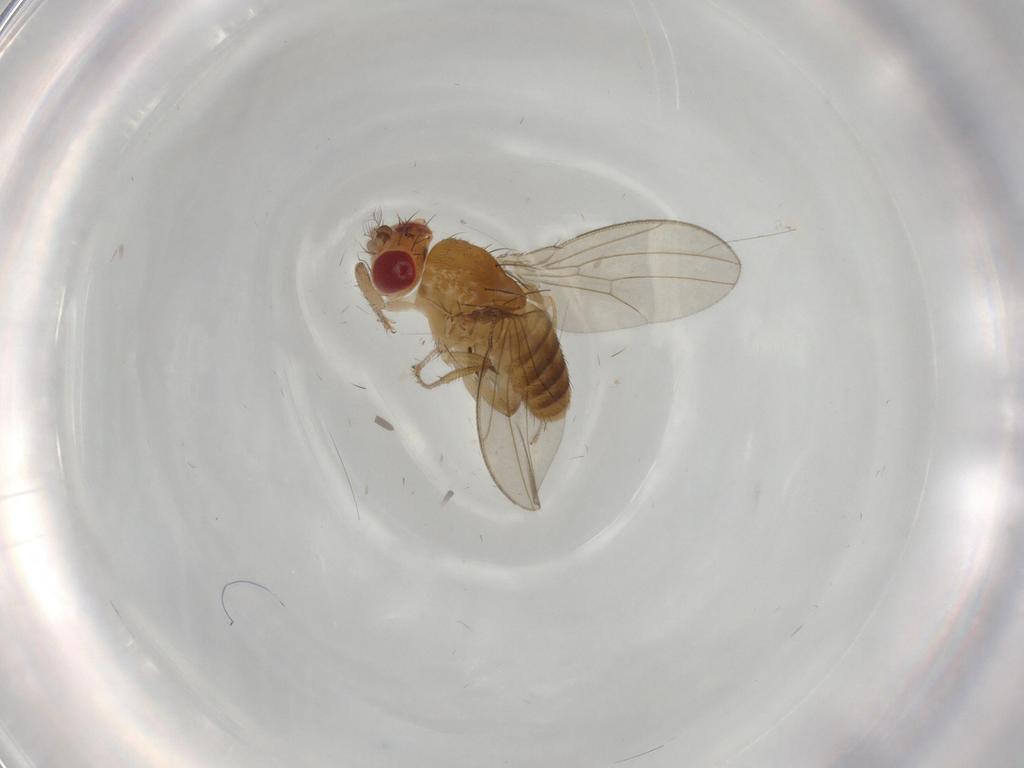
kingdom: Animalia
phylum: Arthropoda
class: Insecta
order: Diptera
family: Drosophilidae
